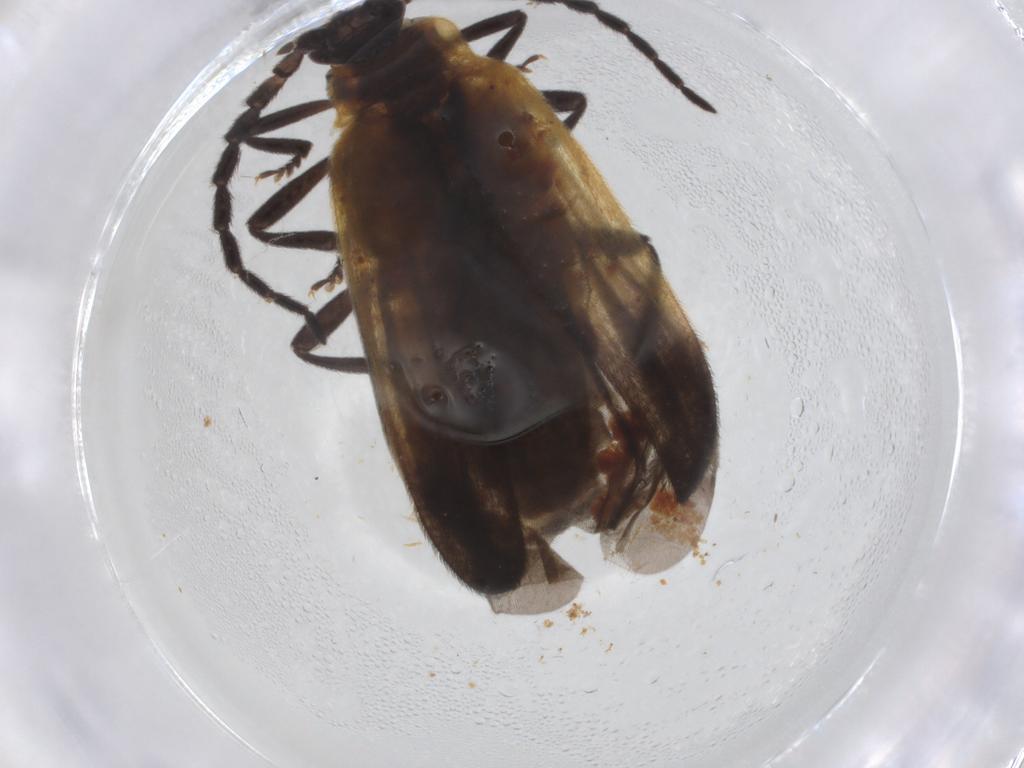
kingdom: Animalia
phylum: Arthropoda
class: Insecta
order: Coleoptera
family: Lycidae
